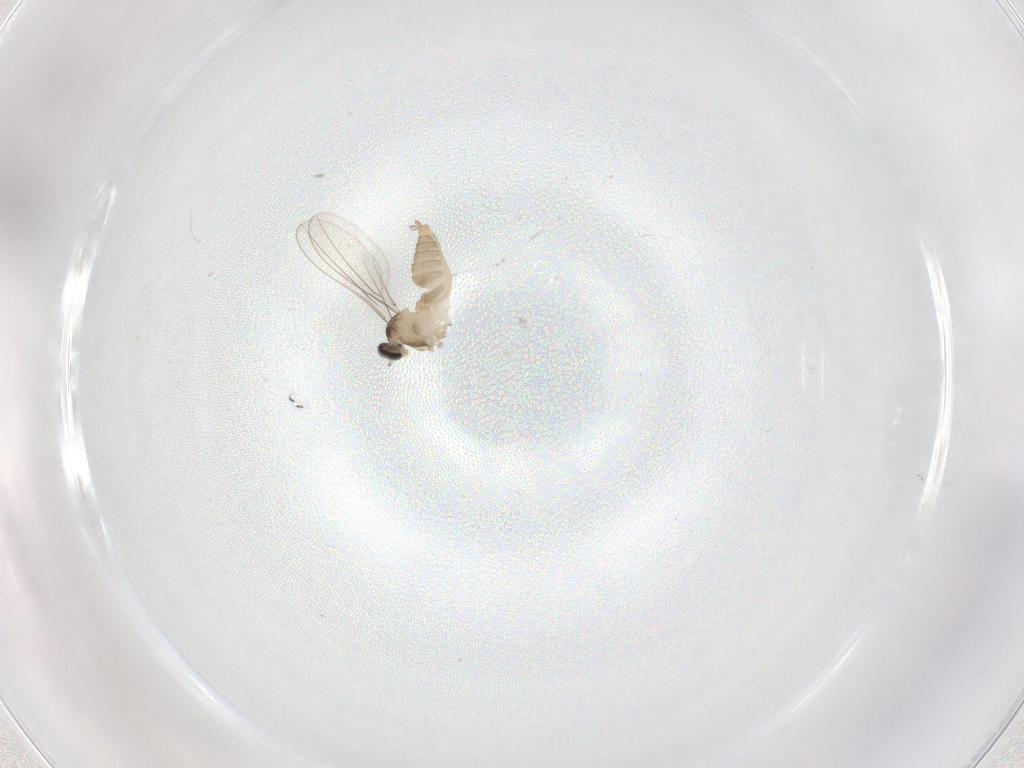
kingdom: Animalia
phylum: Arthropoda
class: Insecta
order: Diptera
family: Cecidomyiidae
